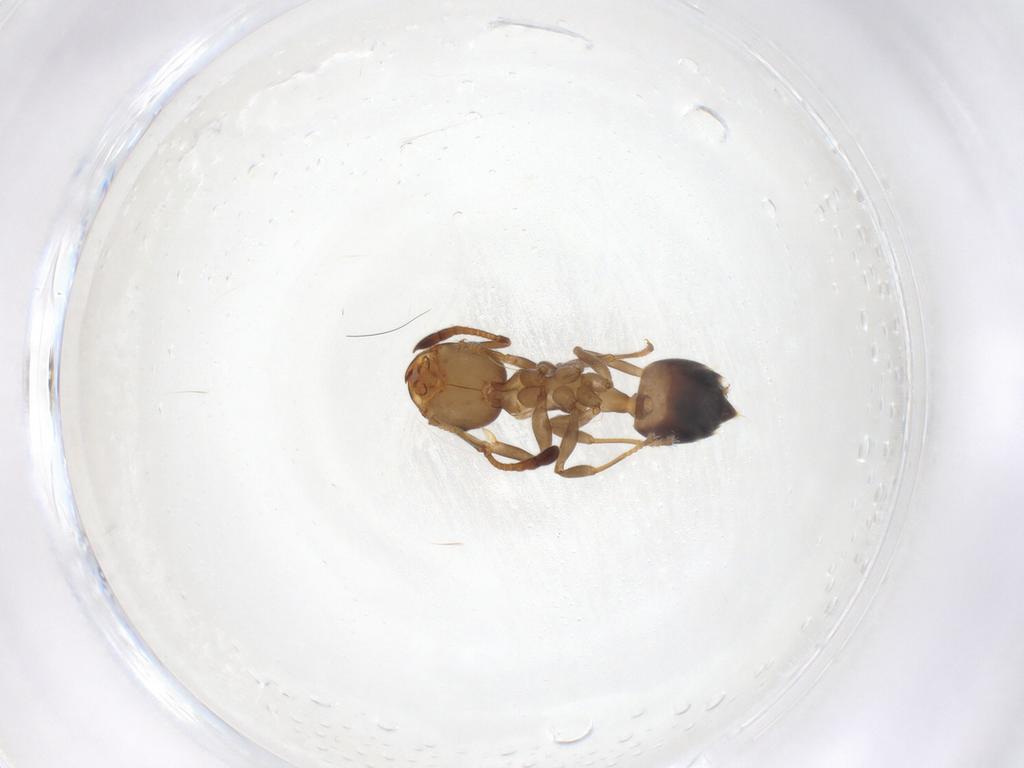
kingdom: Animalia
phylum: Arthropoda
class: Insecta
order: Hymenoptera
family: Formicidae
